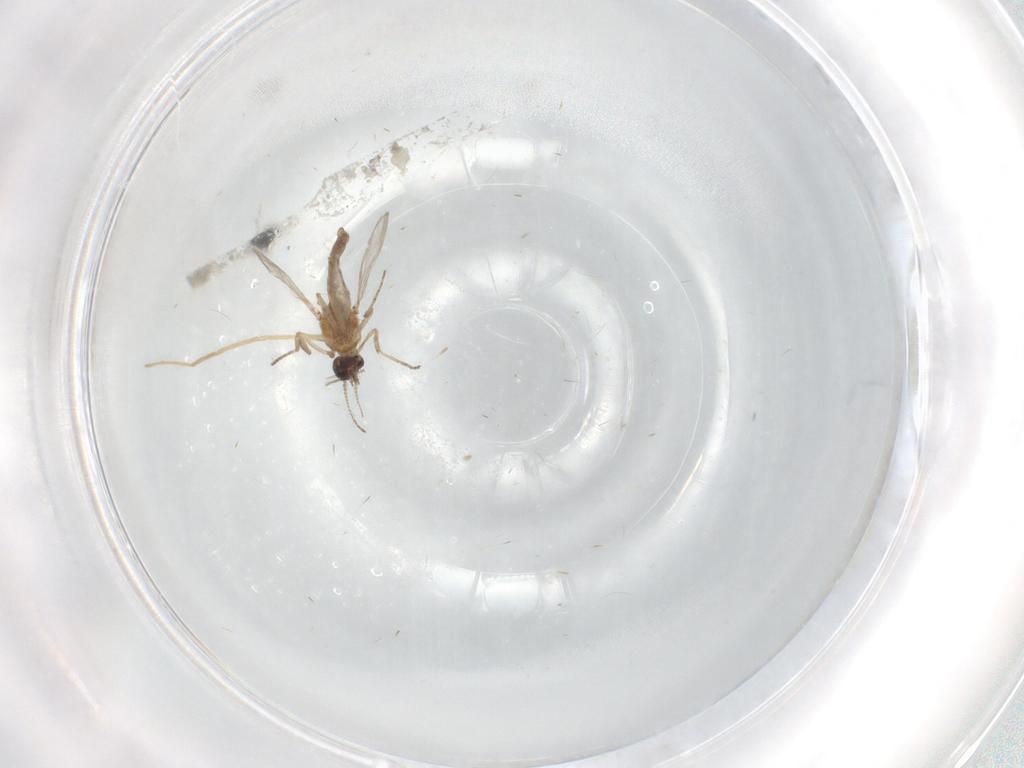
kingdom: Animalia
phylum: Arthropoda
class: Insecta
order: Diptera
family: Chironomidae
